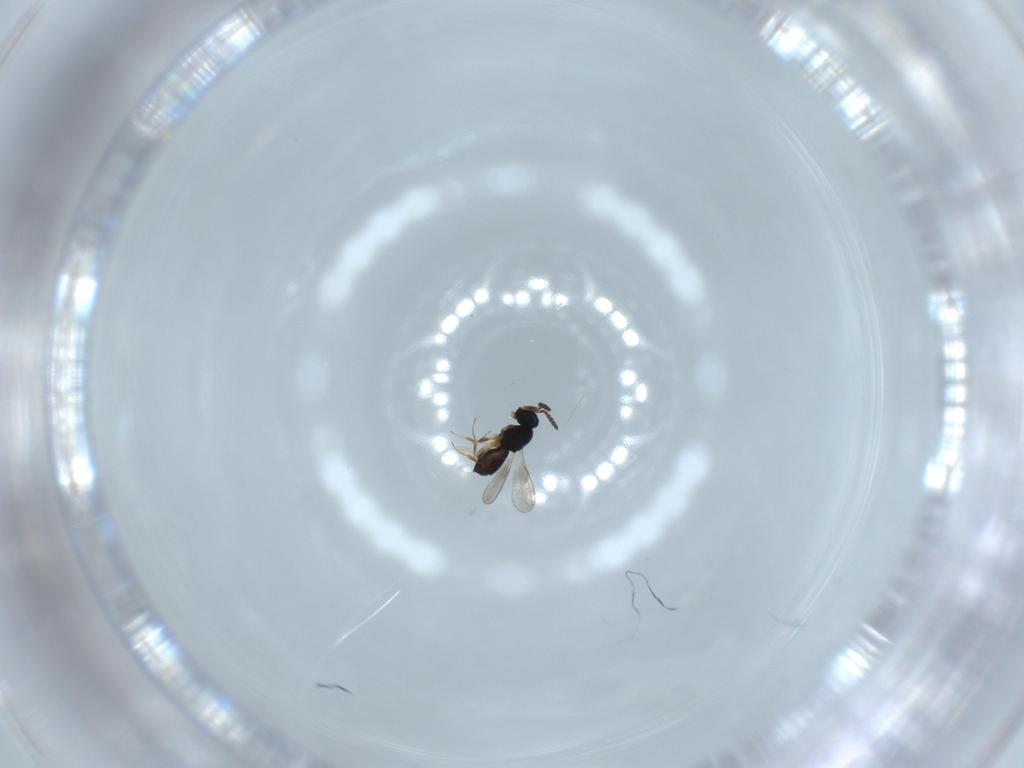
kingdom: Animalia
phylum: Arthropoda
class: Insecta
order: Hymenoptera
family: Scelionidae
